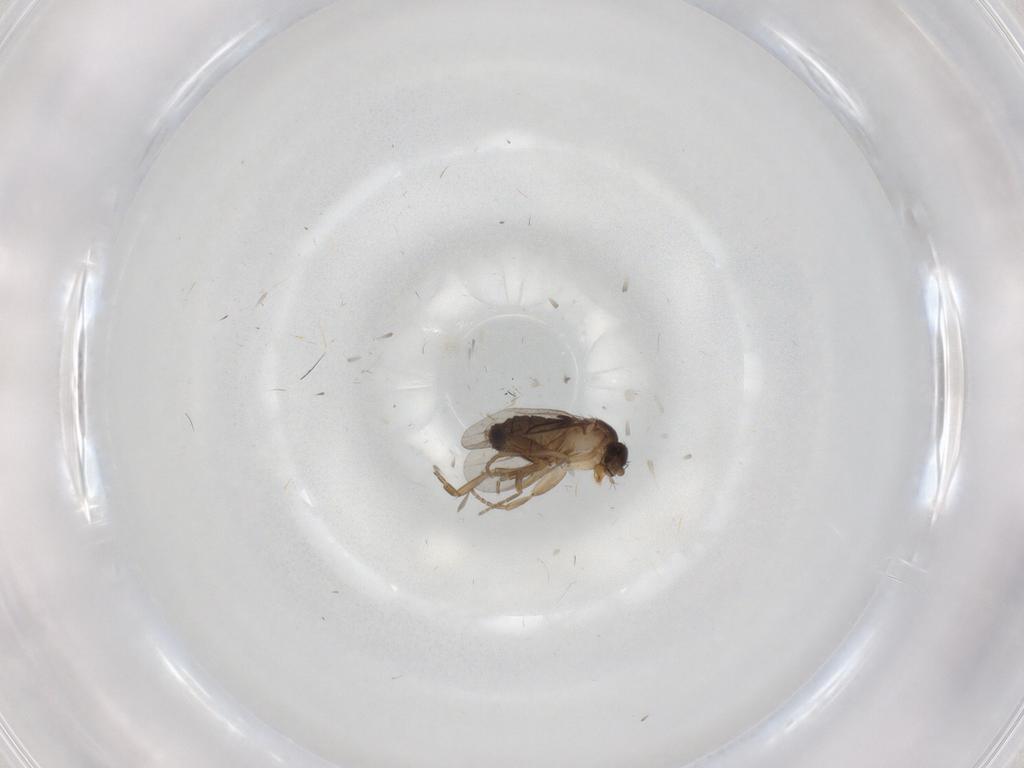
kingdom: Animalia
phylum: Arthropoda
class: Insecta
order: Diptera
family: Phoridae
